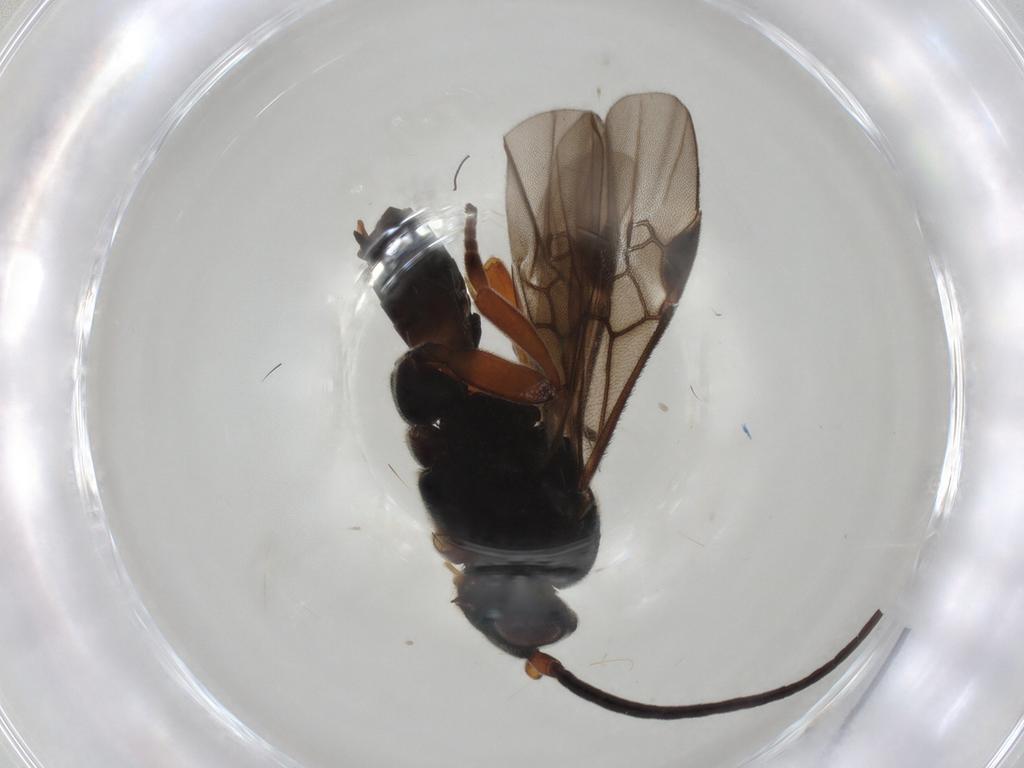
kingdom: Animalia
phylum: Arthropoda
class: Insecta
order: Hymenoptera
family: Braconidae
